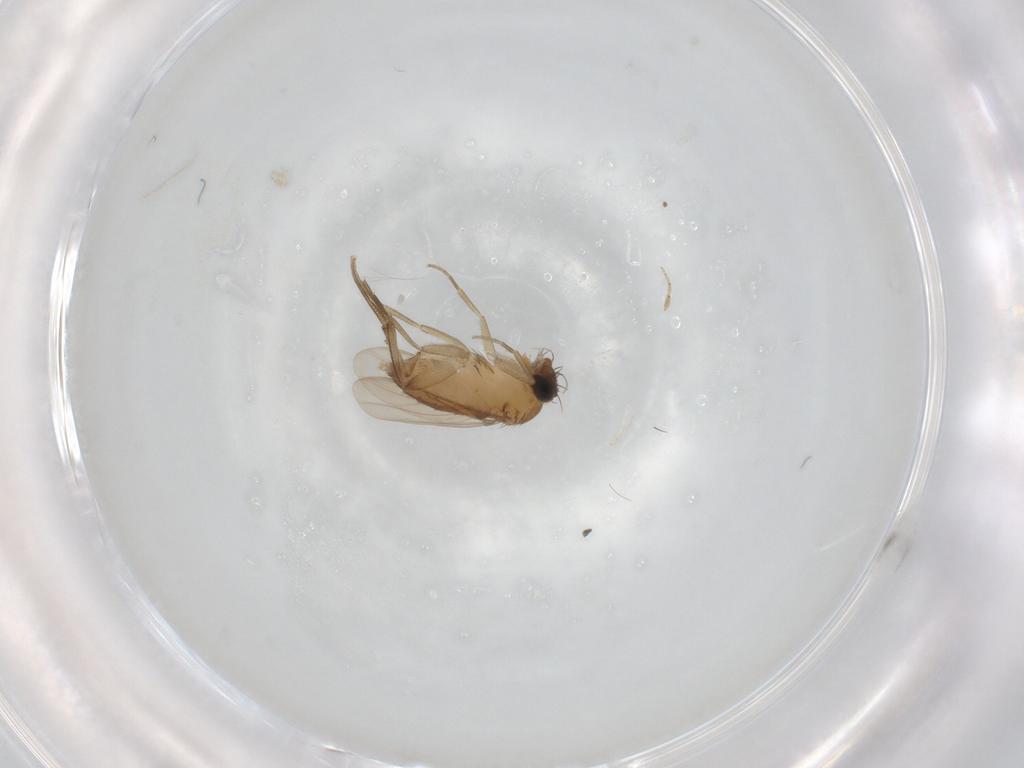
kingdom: Animalia
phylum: Arthropoda
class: Insecta
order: Diptera
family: Phoridae
